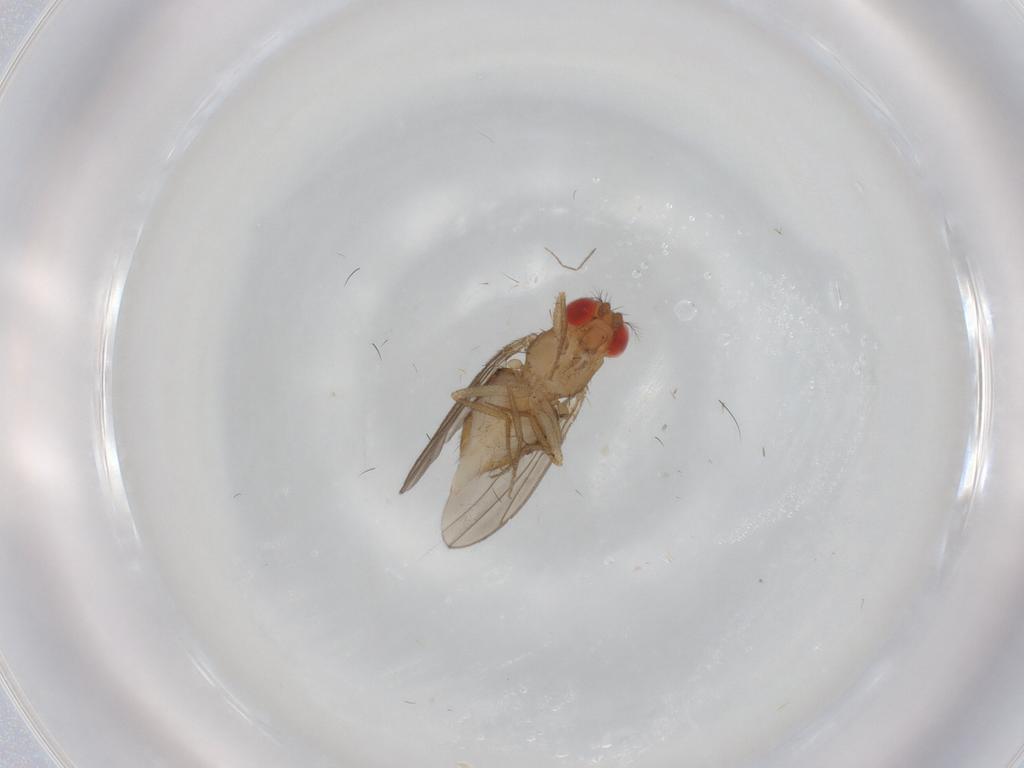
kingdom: Animalia
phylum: Arthropoda
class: Insecta
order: Diptera
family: Drosophilidae
